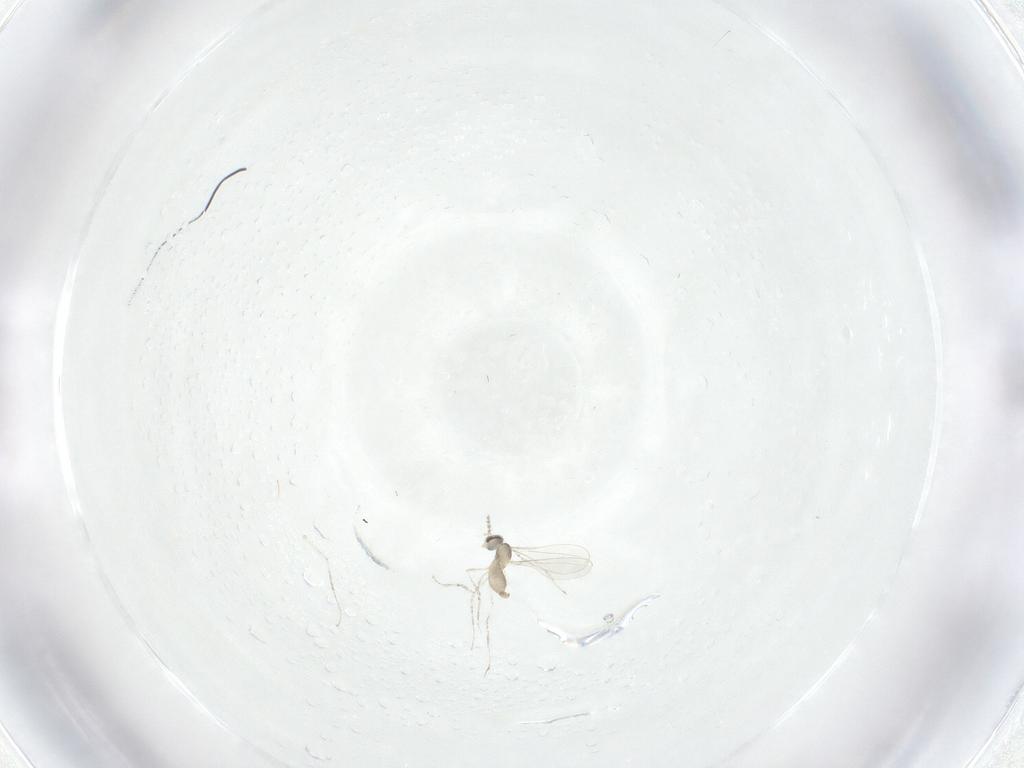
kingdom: Animalia
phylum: Arthropoda
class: Insecta
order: Diptera
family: Cecidomyiidae
